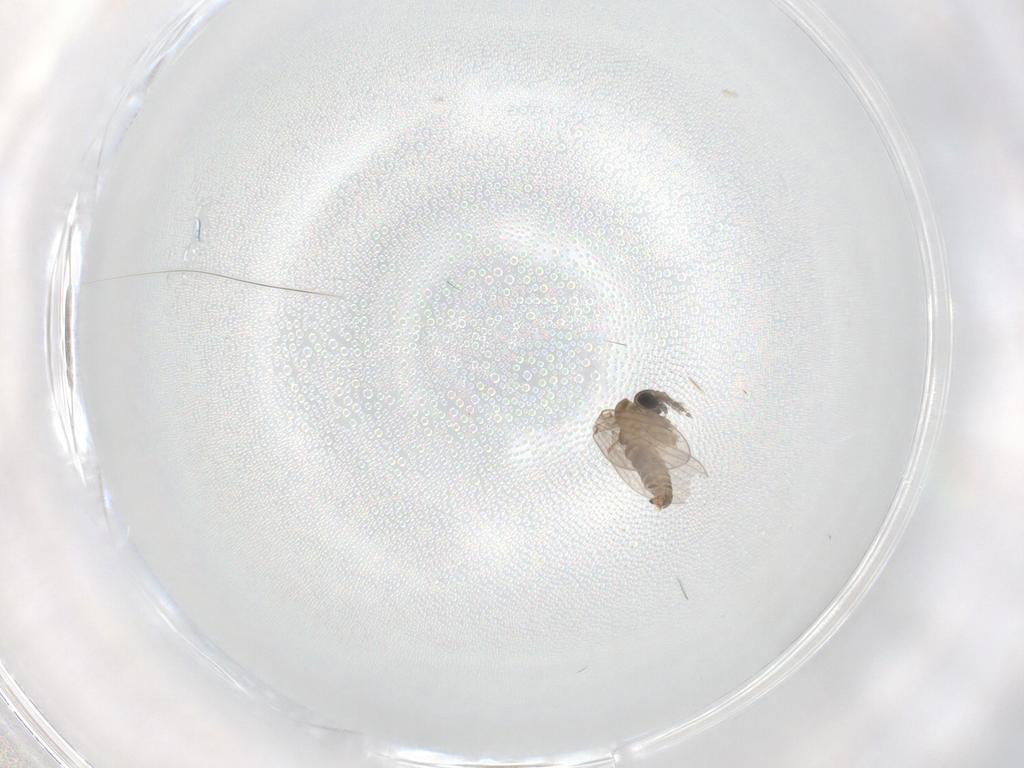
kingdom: Animalia
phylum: Arthropoda
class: Insecta
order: Diptera
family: Psychodidae
